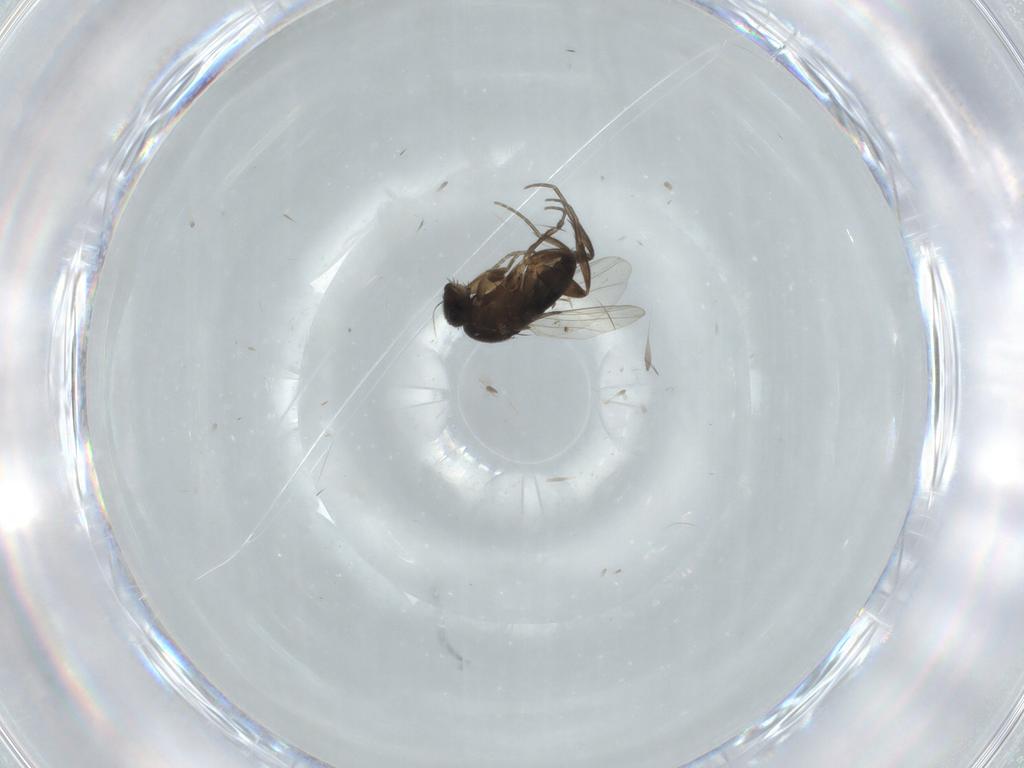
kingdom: Animalia
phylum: Arthropoda
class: Insecta
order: Diptera
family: Phoridae
